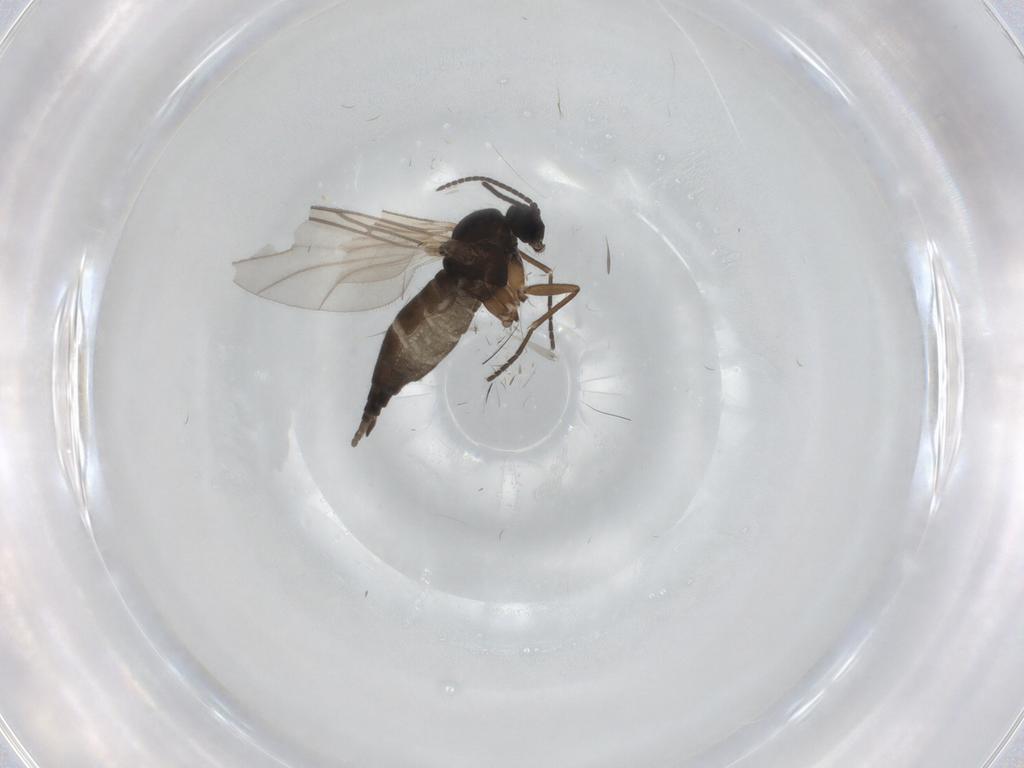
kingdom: Animalia
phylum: Arthropoda
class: Insecta
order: Diptera
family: Sciaridae
